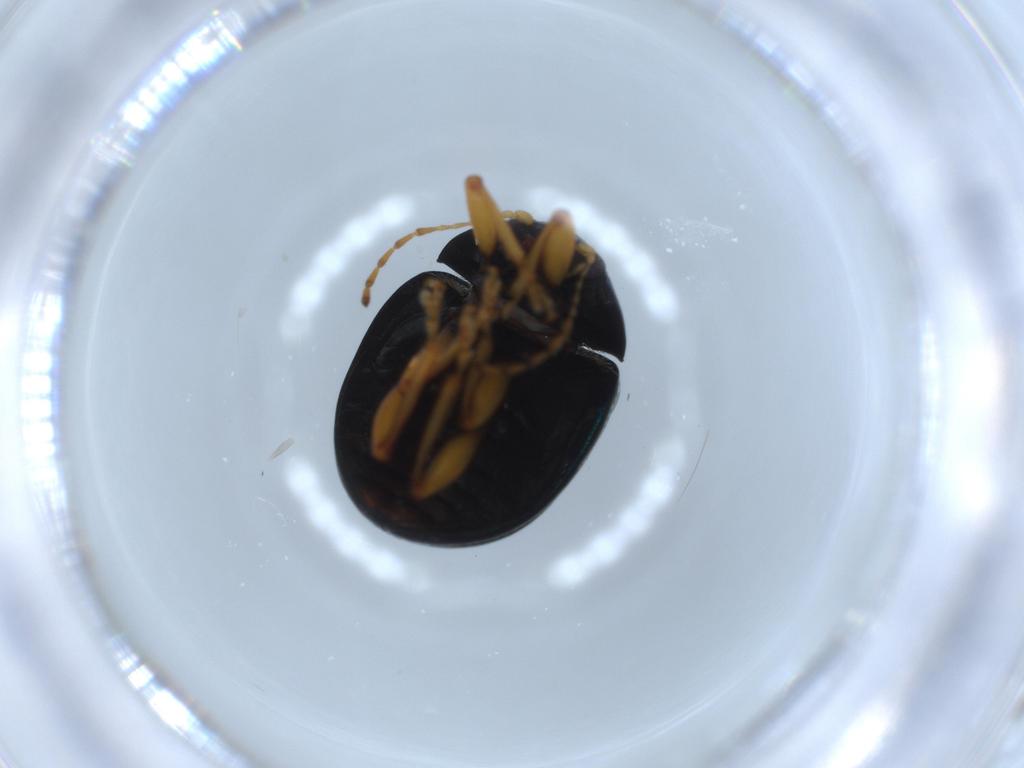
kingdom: Animalia
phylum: Arthropoda
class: Insecta
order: Coleoptera
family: Chrysomelidae
